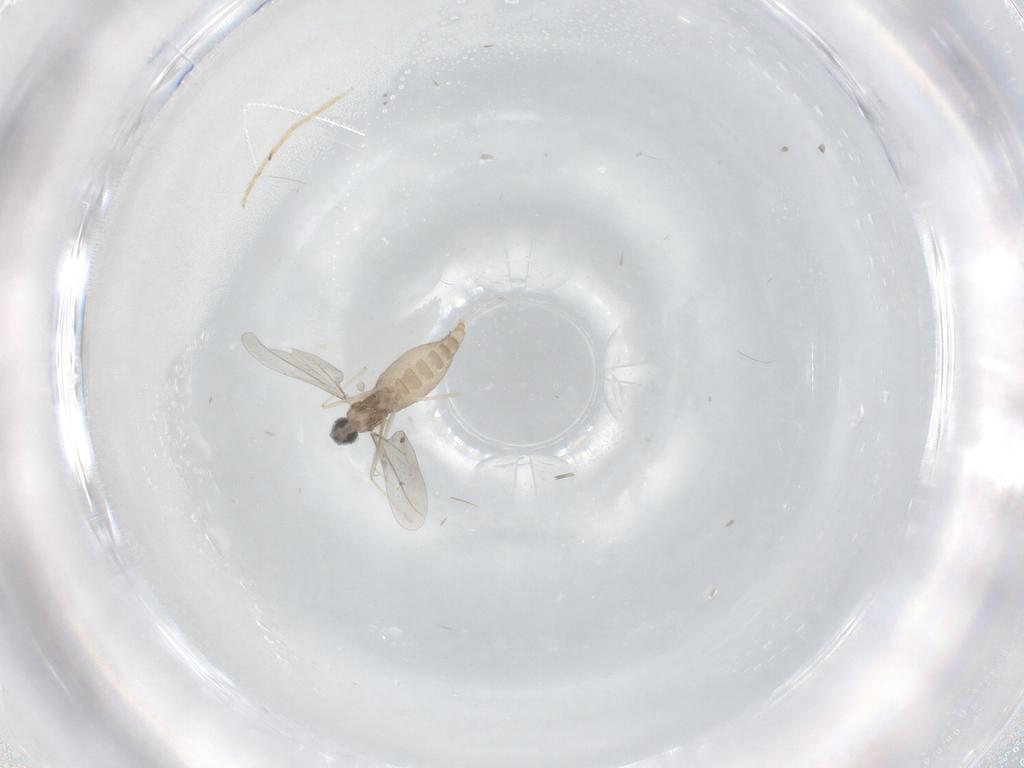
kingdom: Animalia
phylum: Arthropoda
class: Insecta
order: Diptera
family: Cecidomyiidae
